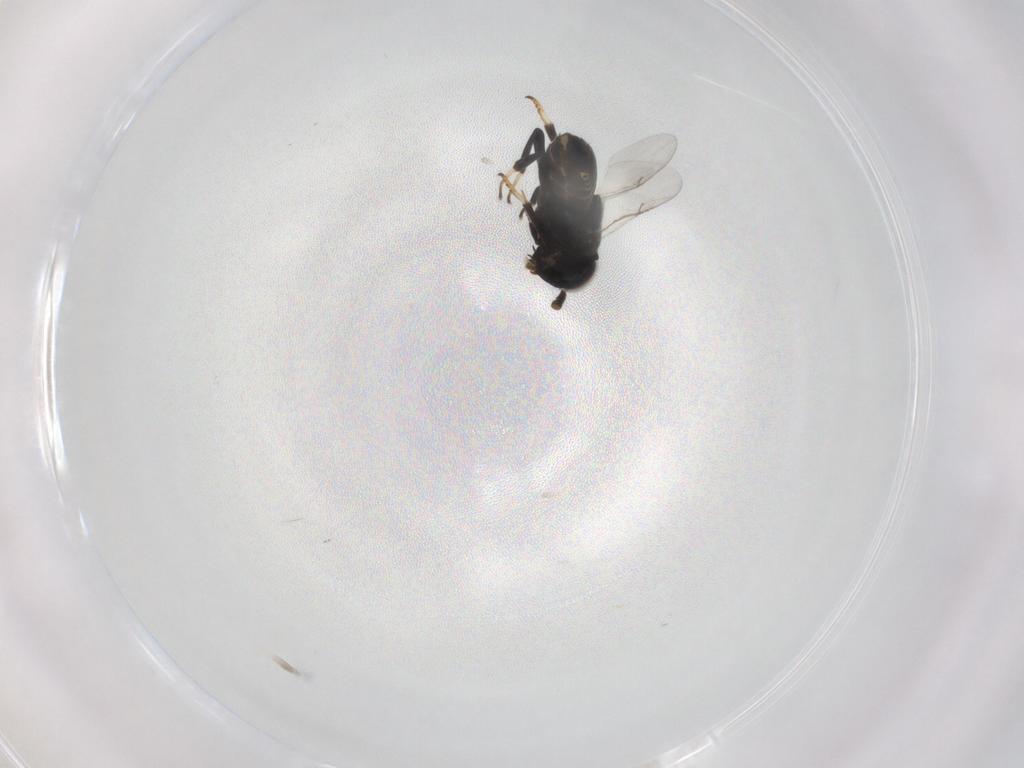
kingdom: Animalia
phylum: Arthropoda
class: Insecta
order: Hymenoptera
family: Encyrtidae
